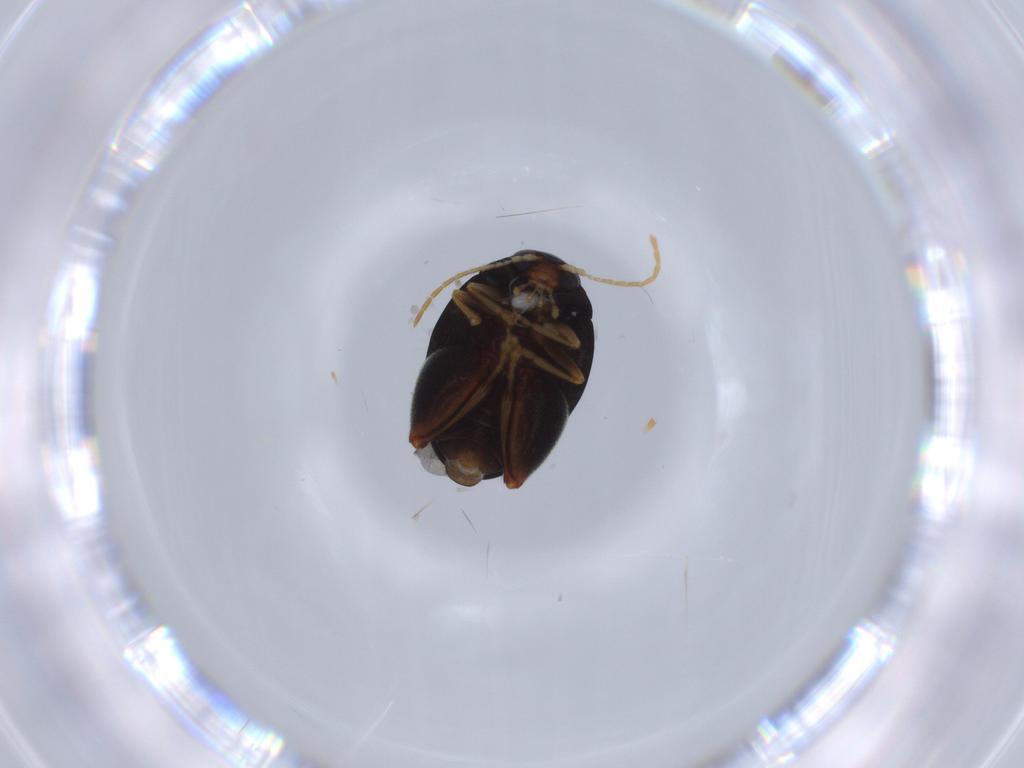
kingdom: Animalia
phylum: Arthropoda
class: Insecta
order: Coleoptera
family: Chrysomelidae
